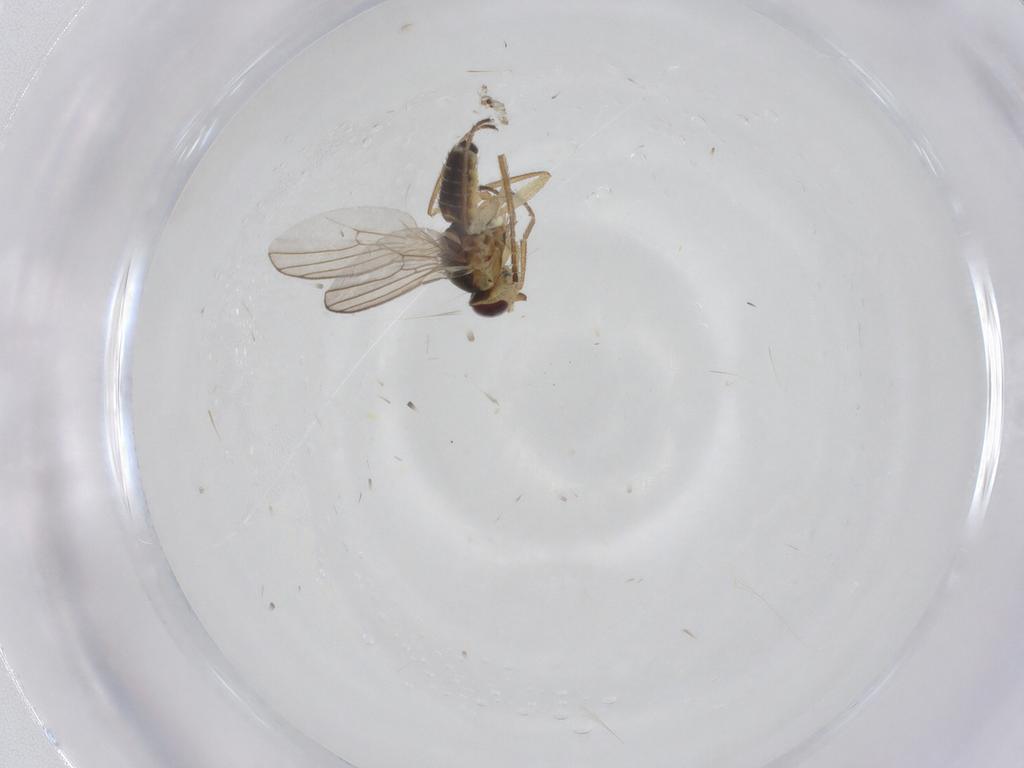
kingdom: Animalia
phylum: Arthropoda
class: Insecta
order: Diptera
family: Agromyzidae
